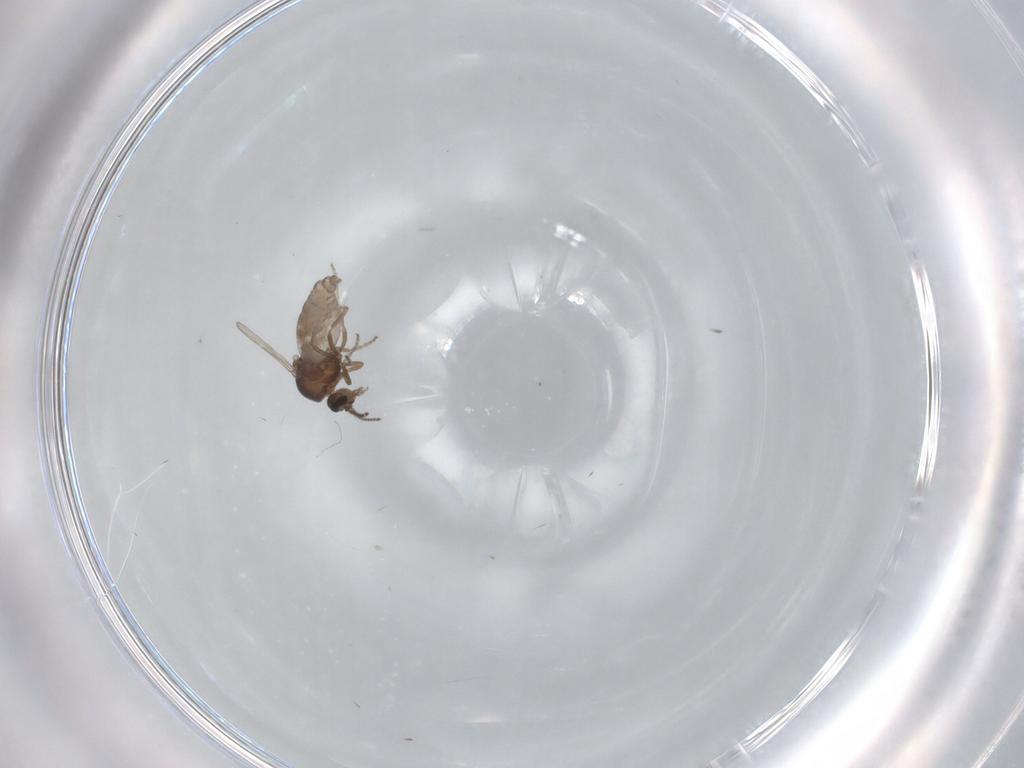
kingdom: Animalia
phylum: Arthropoda
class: Insecta
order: Diptera
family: Ceratopogonidae
